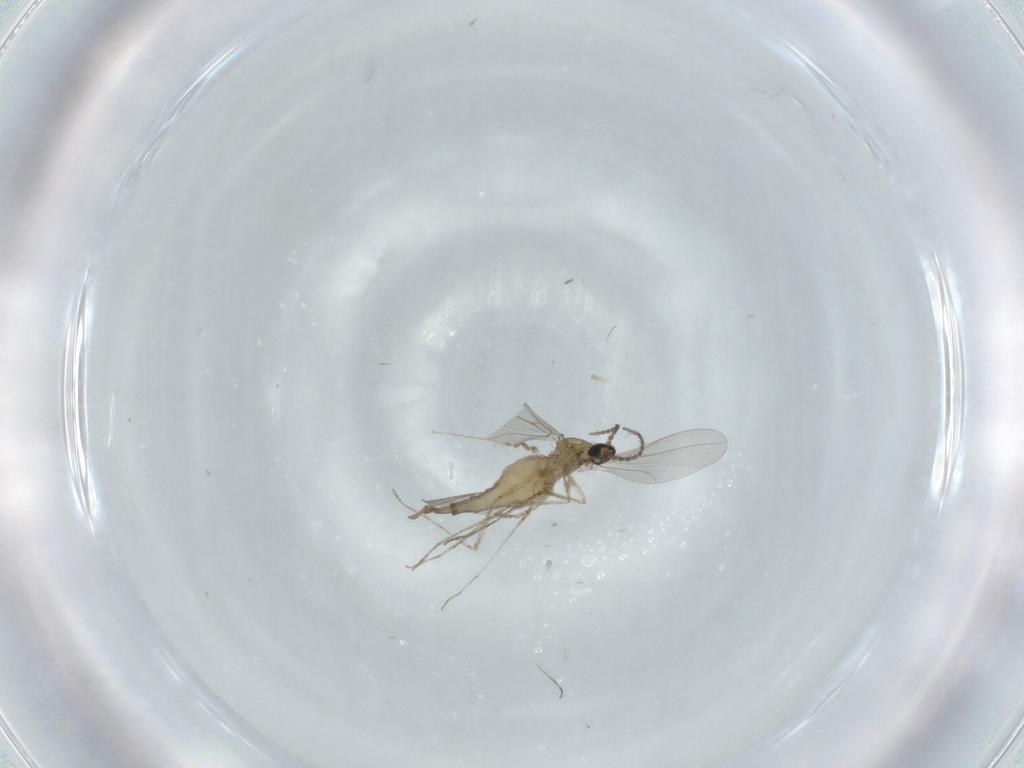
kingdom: Animalia
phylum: Arthropoda
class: Insecta
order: Diptera
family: Cecidomyiidae
